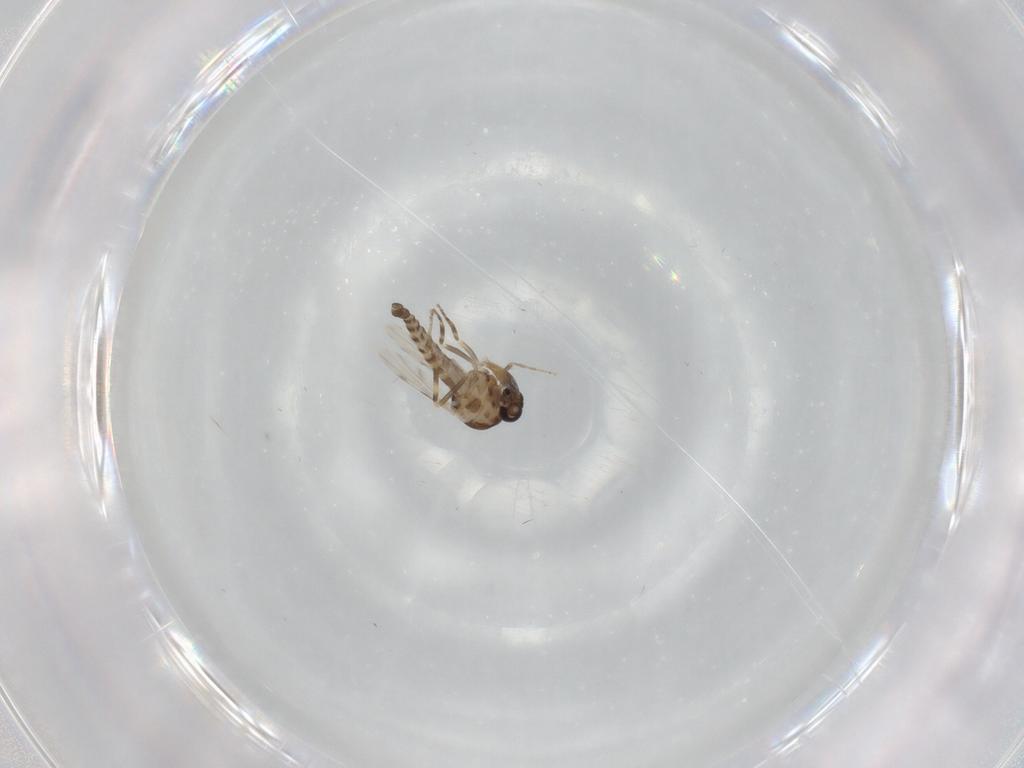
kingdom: Animalia
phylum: Arthropoda
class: Insecta
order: Diptera
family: Ceratopogonidae
